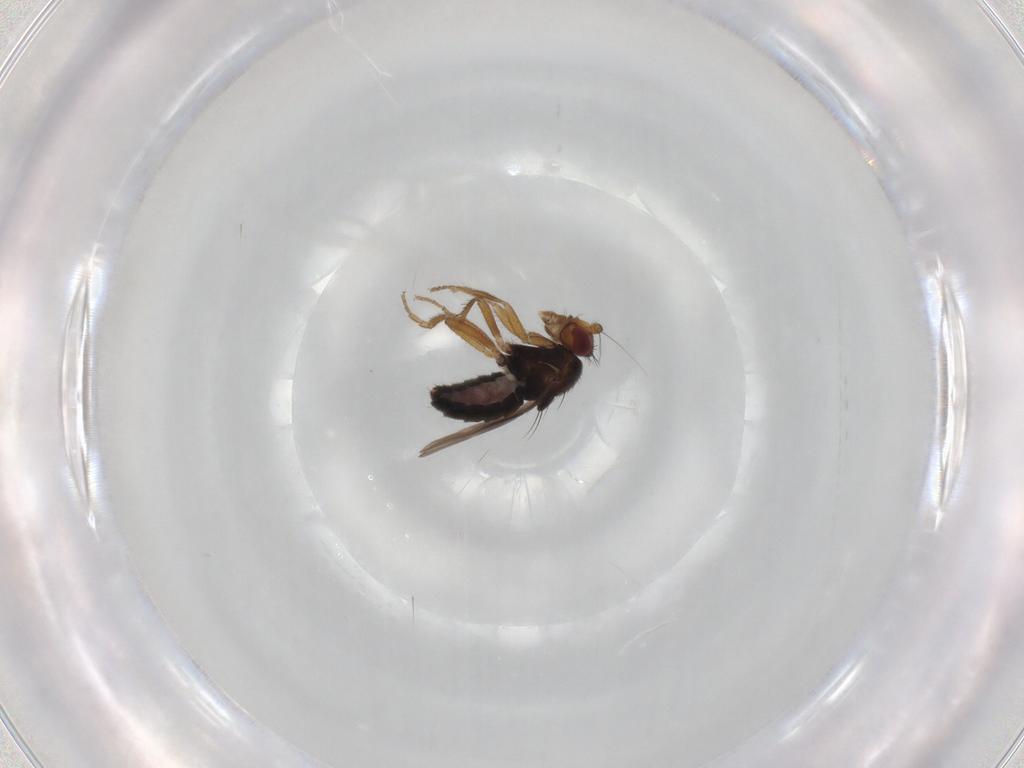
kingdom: Animalia
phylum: Arthropoda
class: Insecta
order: Diptera
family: Sphaeroceridae
